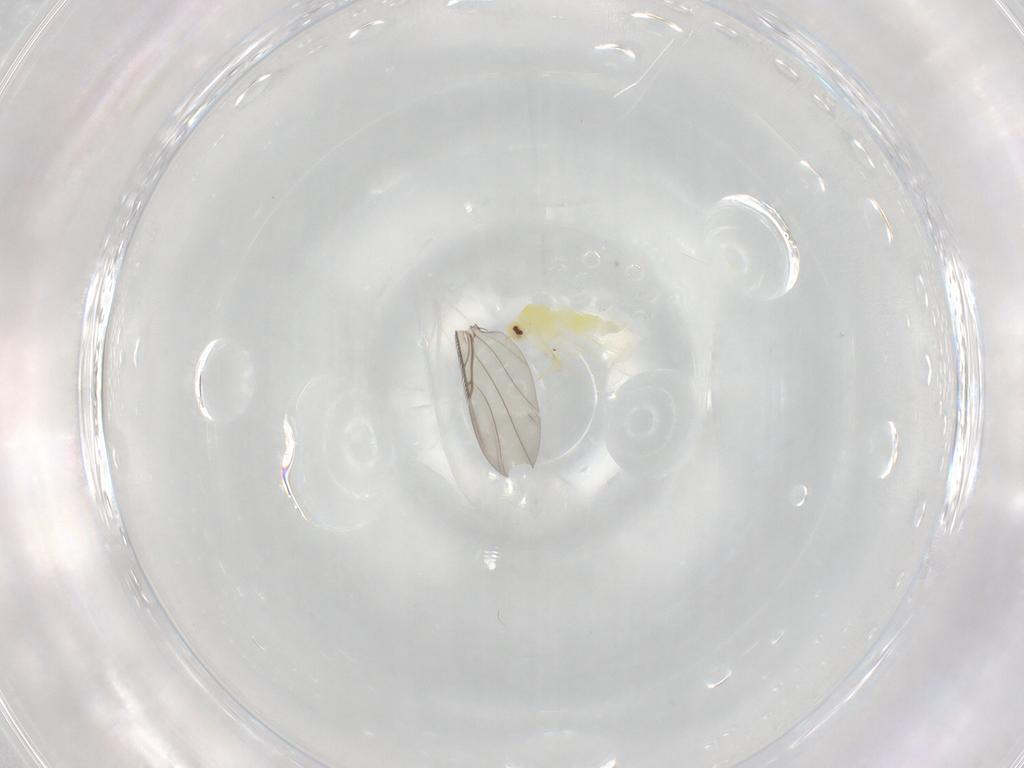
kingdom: Animalia
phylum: Arthropoda
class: Insecta
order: Hemiptera
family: Aleyrodidae
